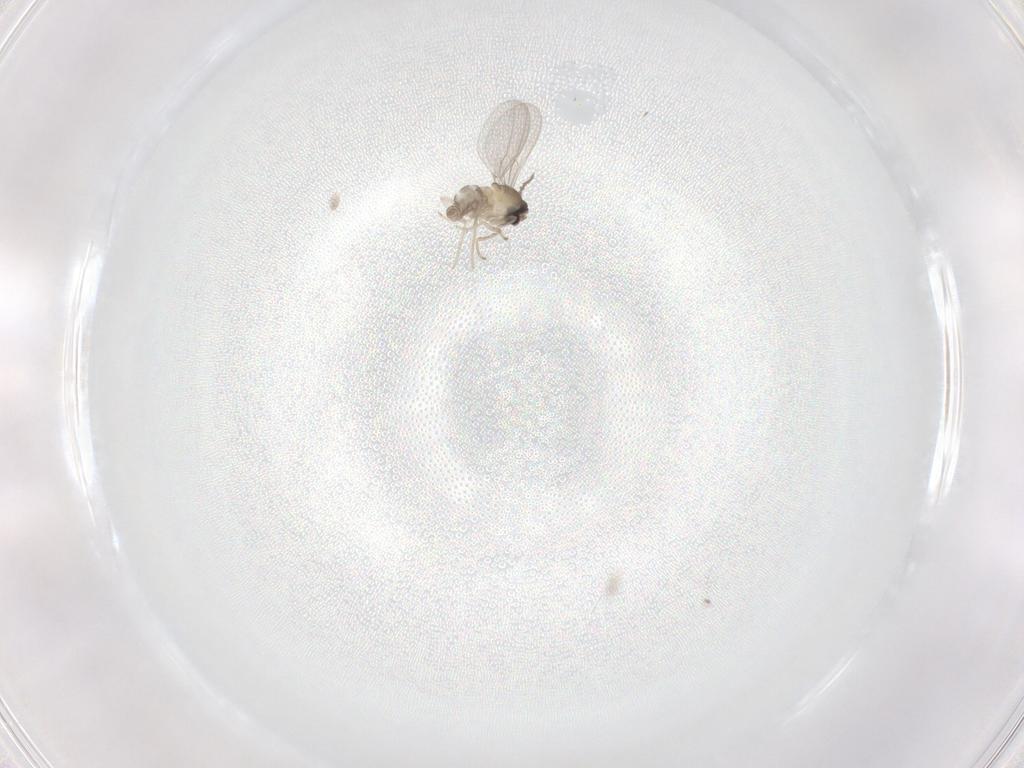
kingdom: Animalia
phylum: Arthropoda
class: Insecta
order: Diptera
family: Cecidomyiidae
